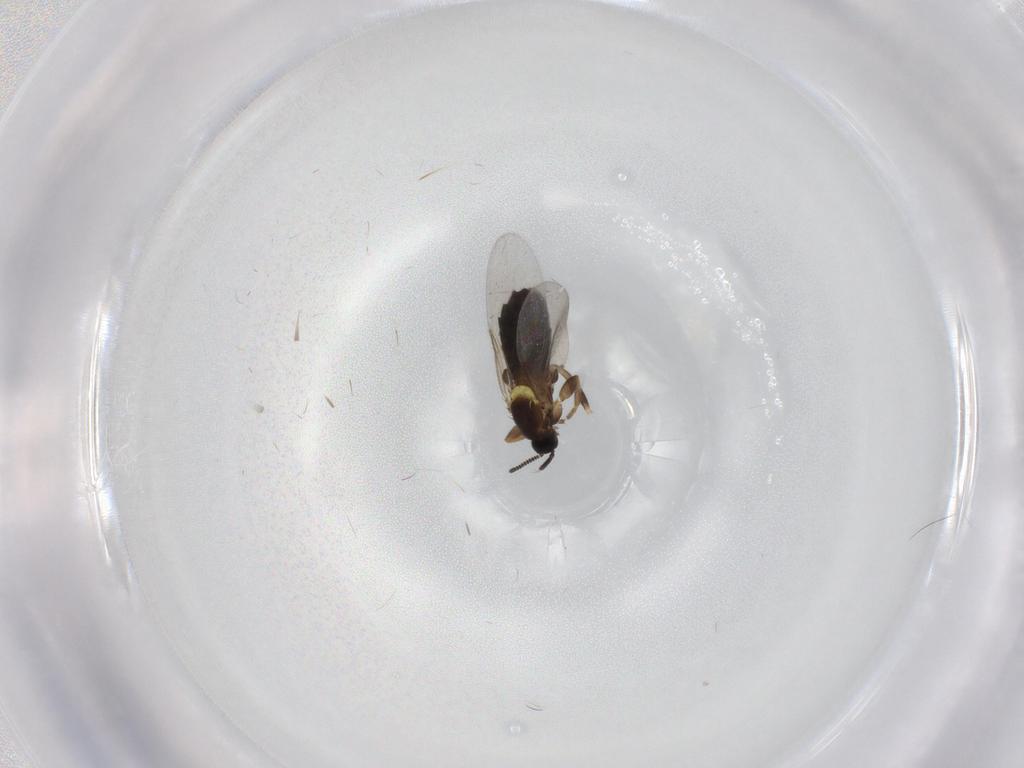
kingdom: Animalia
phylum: Arthropoda
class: Insecta
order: Diptera
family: Scatopsidae
